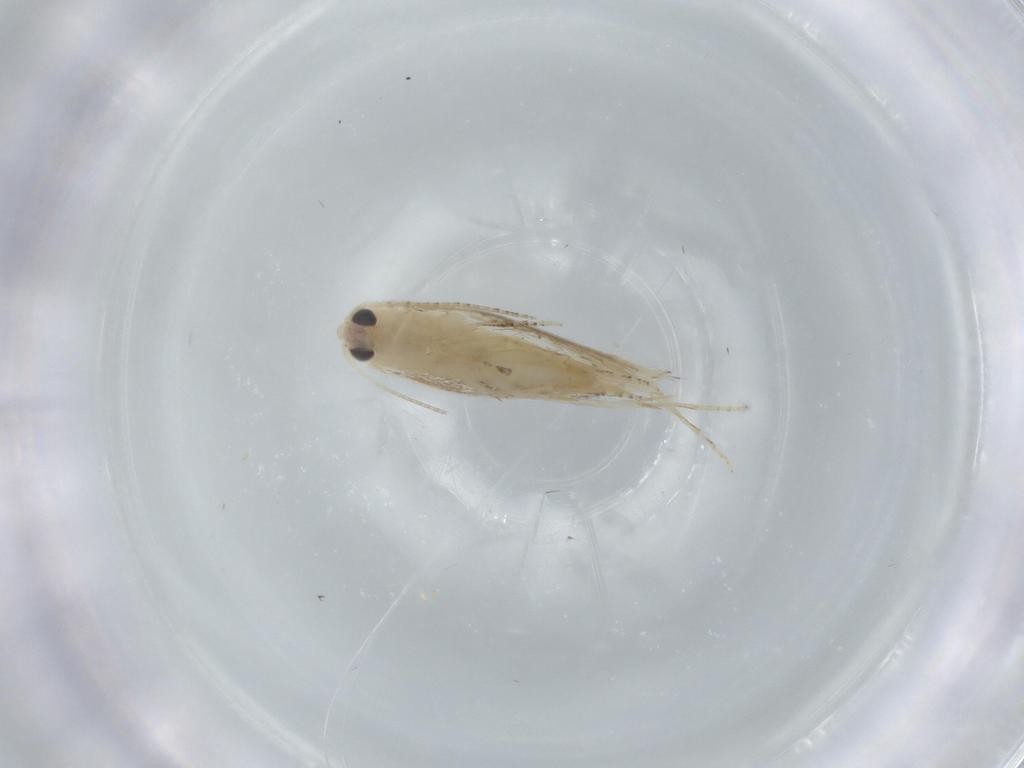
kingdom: Animalia
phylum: Arthropoda
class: Insecta
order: Lepidoptera
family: Bucculatricidae
